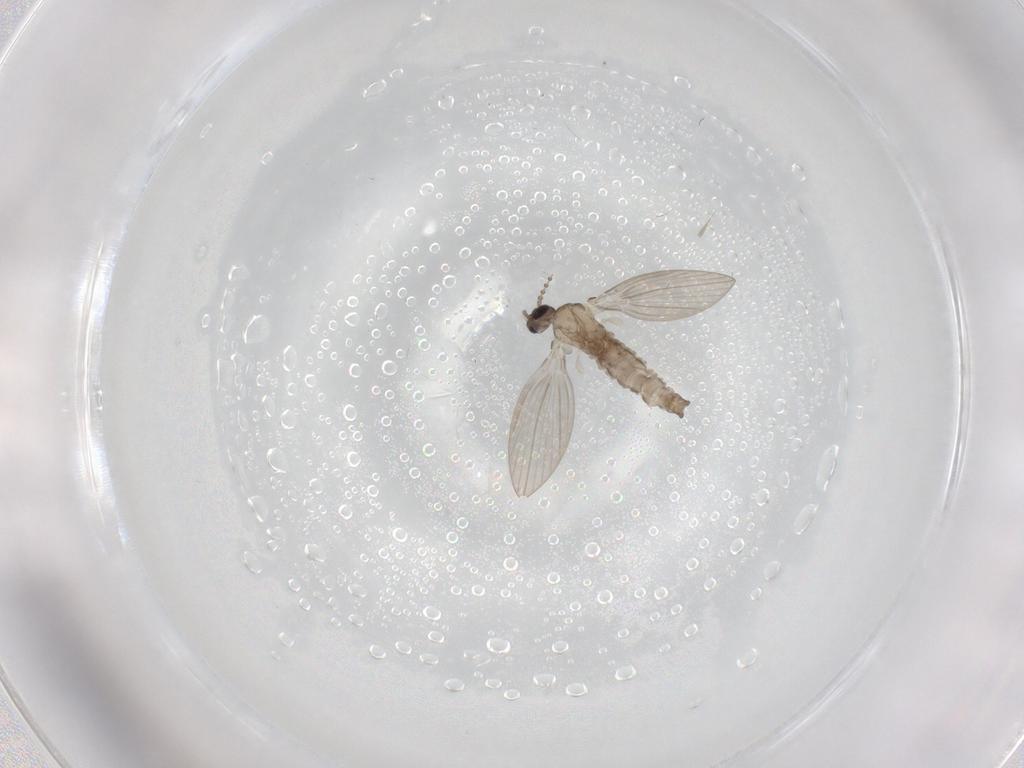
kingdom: Animalia
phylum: Arthropoda
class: Insecta
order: Diptera
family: Psychodidae
